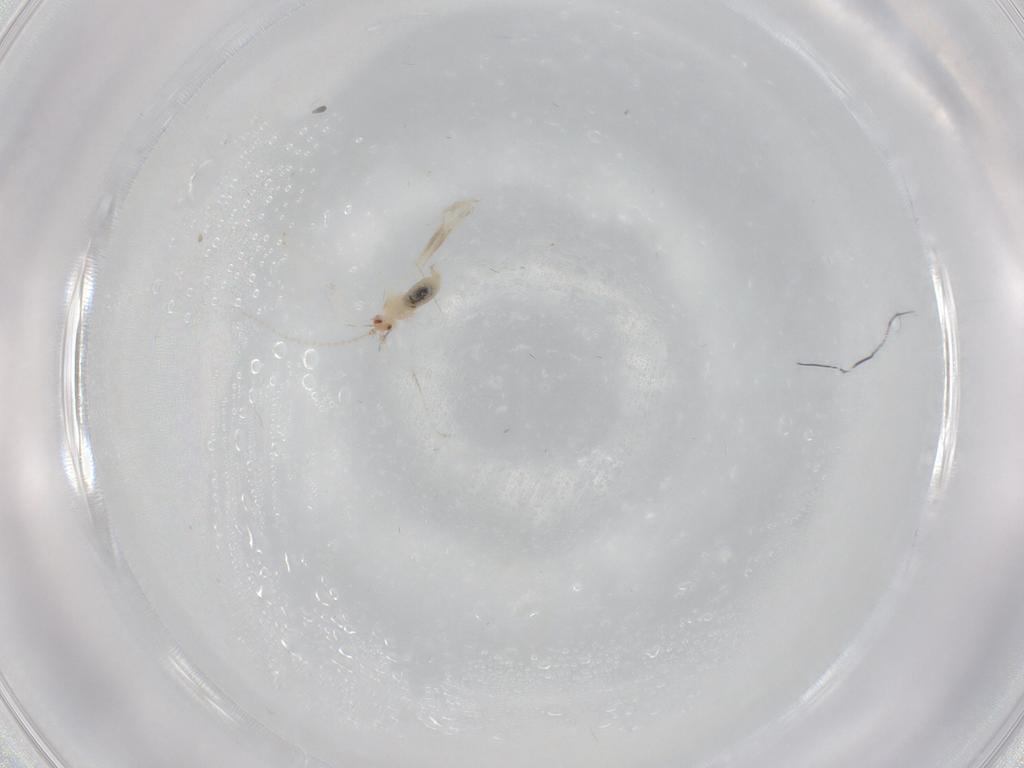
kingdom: Animalia
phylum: Arthropoda
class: Insecta
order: Diptera
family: Cecidomyiidae
